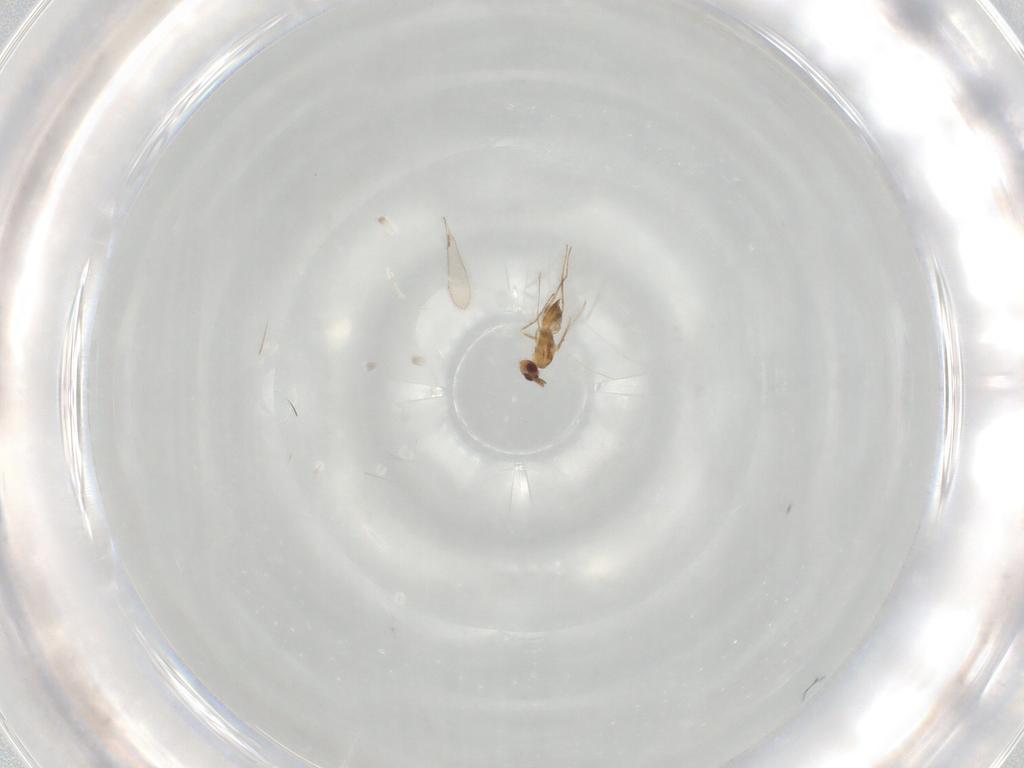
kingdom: Animalia
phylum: Arthropoda
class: Insecta
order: Hymenoptera
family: Mymaridae
